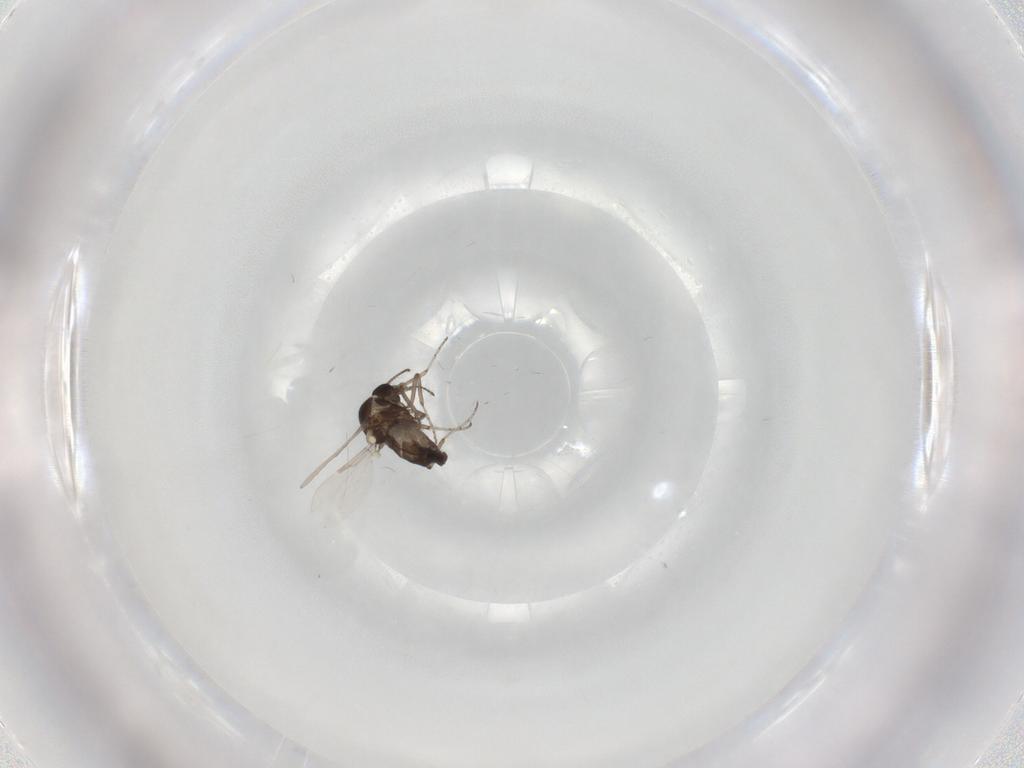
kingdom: Animalia
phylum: Arthropoda
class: Insecta
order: Diptera
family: Ceratopogonidae
